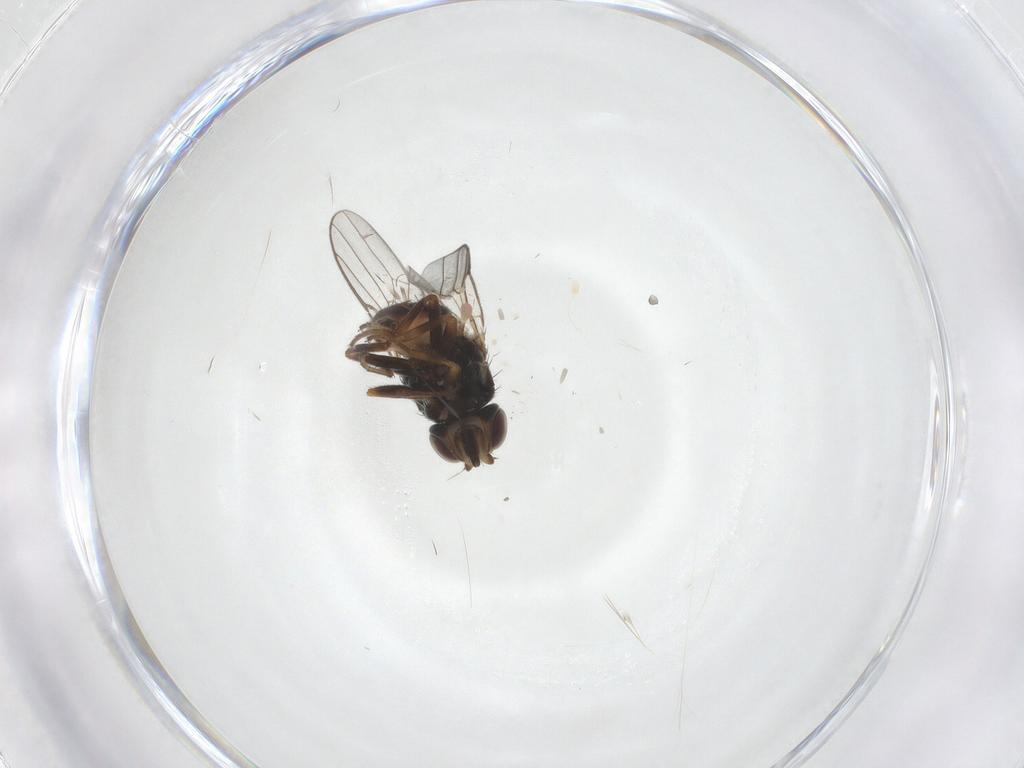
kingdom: Animalia
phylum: Arthropoda
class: Insecta
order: Diptera
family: Chloropidae
